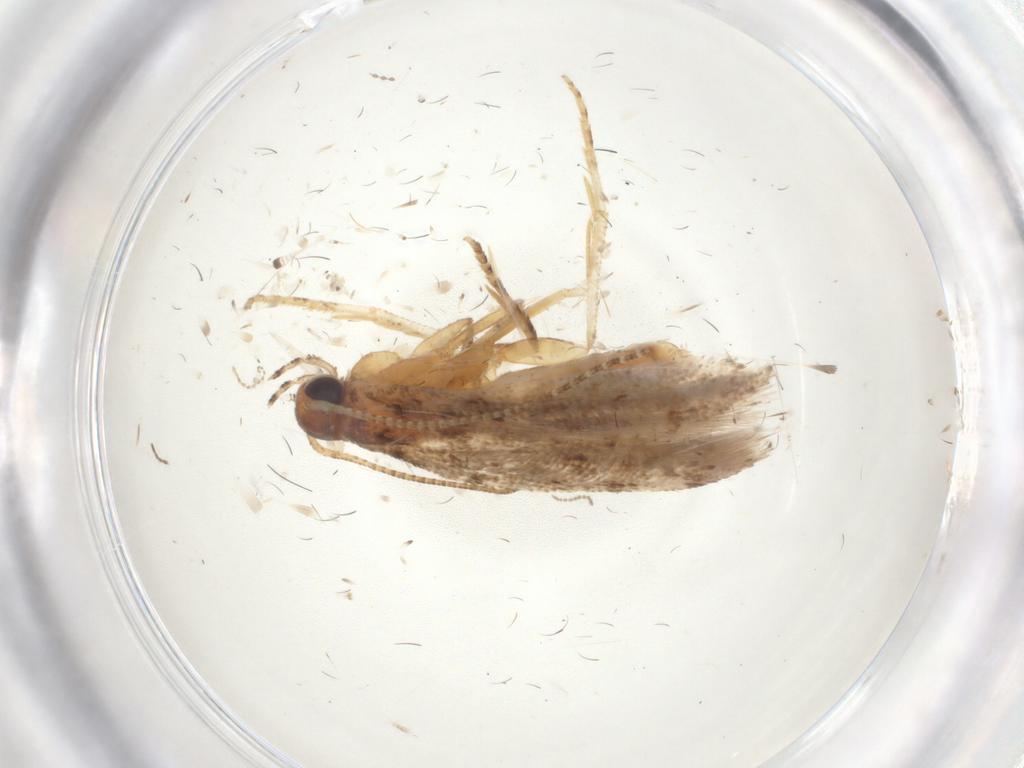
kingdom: Animalia
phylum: Arthropoda
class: Insecta
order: Lepidoptera
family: Gelechiidae
